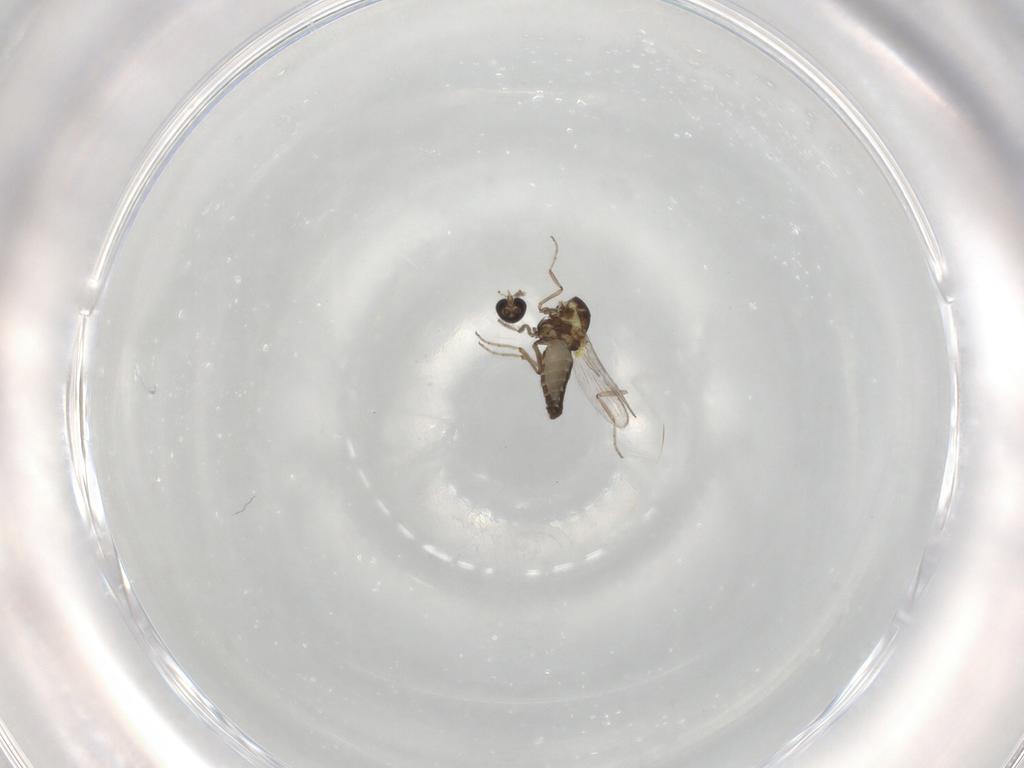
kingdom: Animalia
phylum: Arthropoda
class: Insecta
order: Diptera
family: Ceratopogonidae
